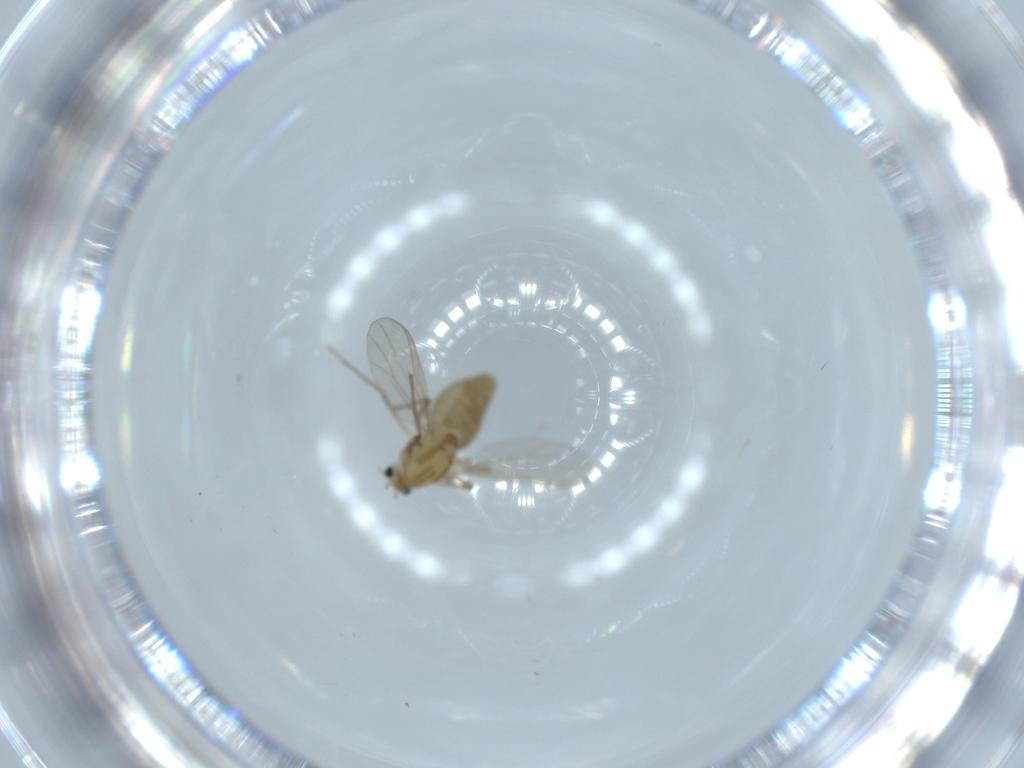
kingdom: Animalia
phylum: Arthropoda
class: Insecta
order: Diptera
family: Chironomidae
